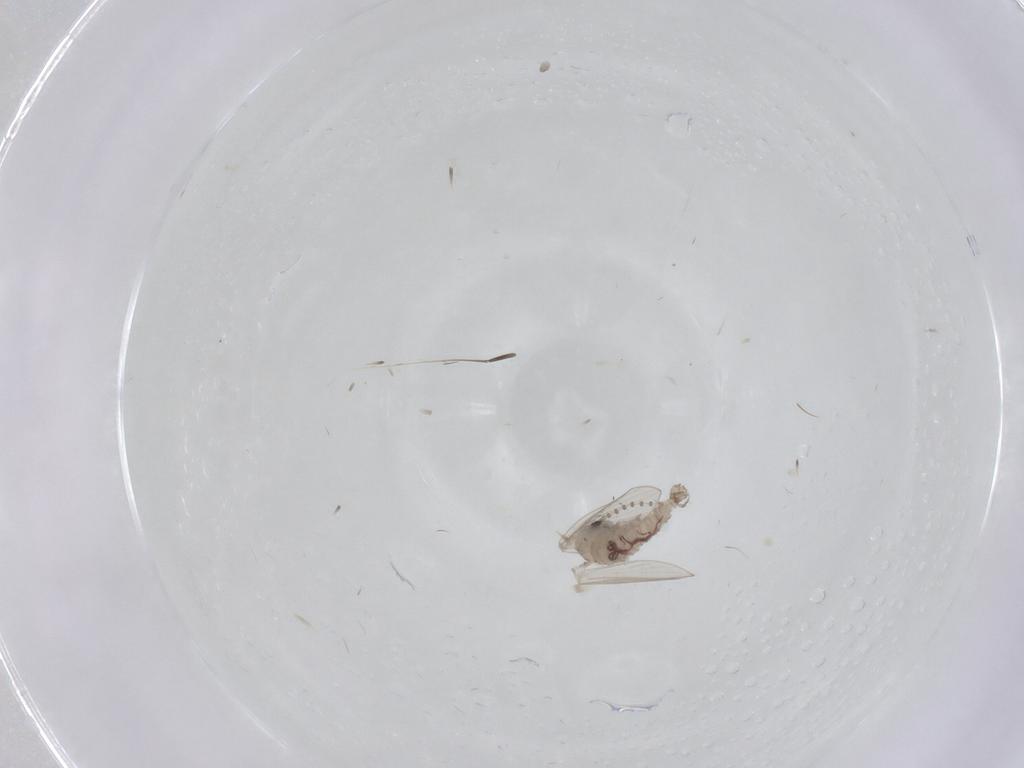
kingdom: Animalia
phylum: Arthropoda
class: Insecta
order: Diptera
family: Psychodidae
